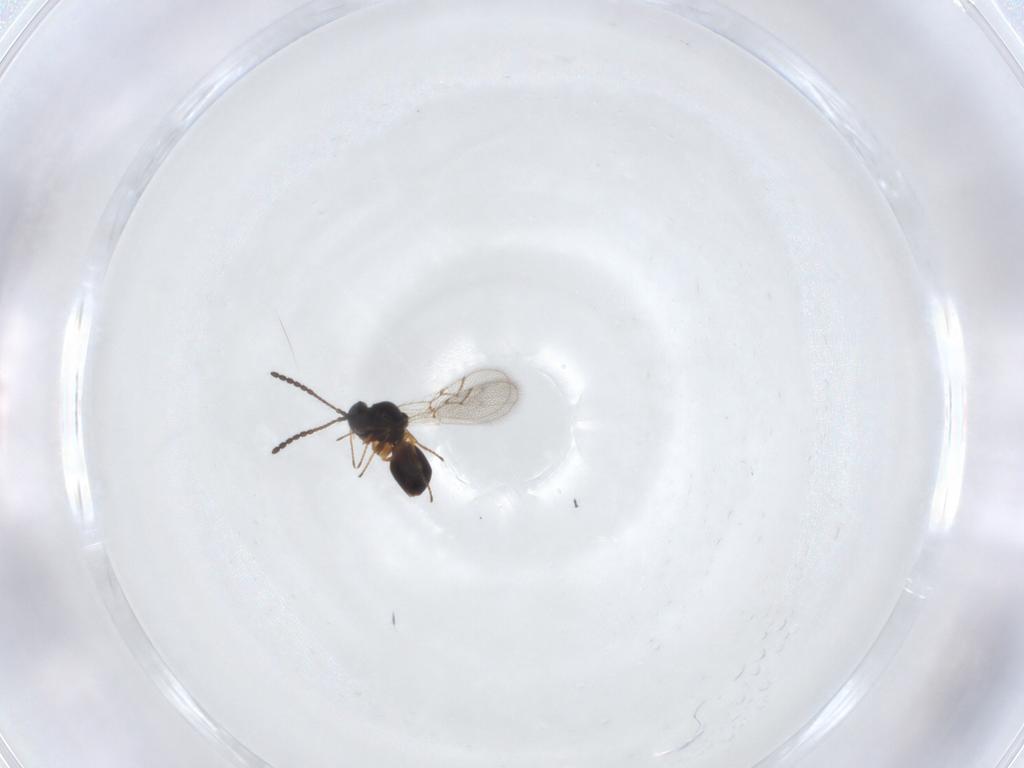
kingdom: Animalia
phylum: Arthropoda
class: Insecta
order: Hymenoptera
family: Figitidae
